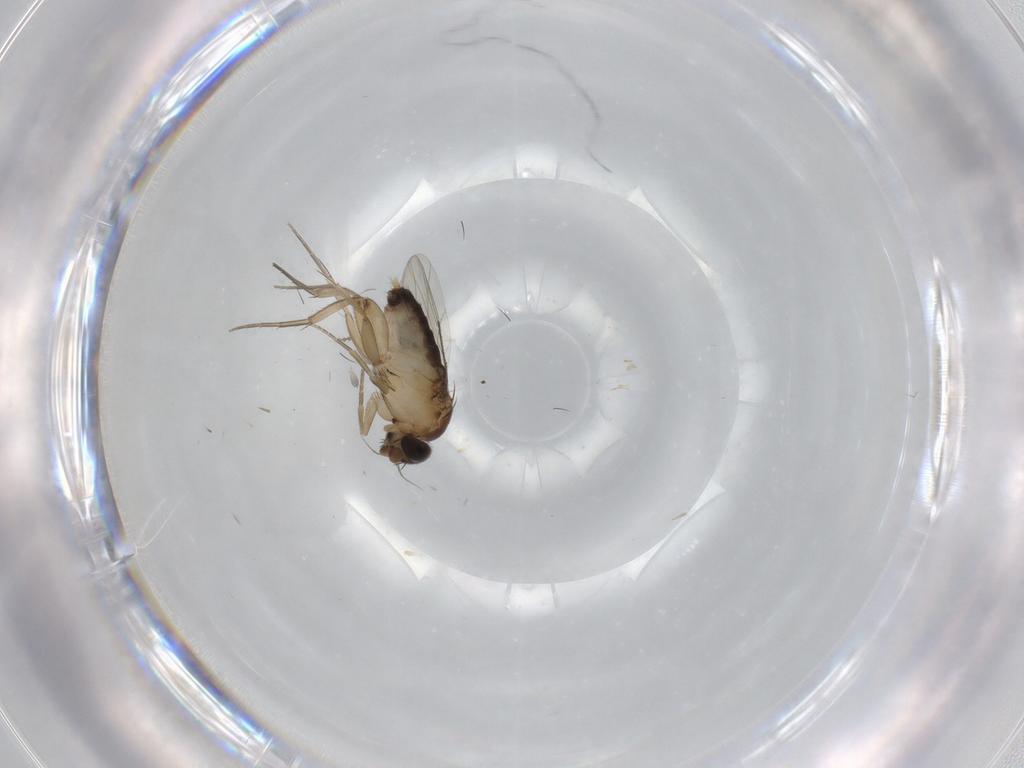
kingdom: Animalia
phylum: Arthropoda
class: Insecta
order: Diptera
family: Phoridae
